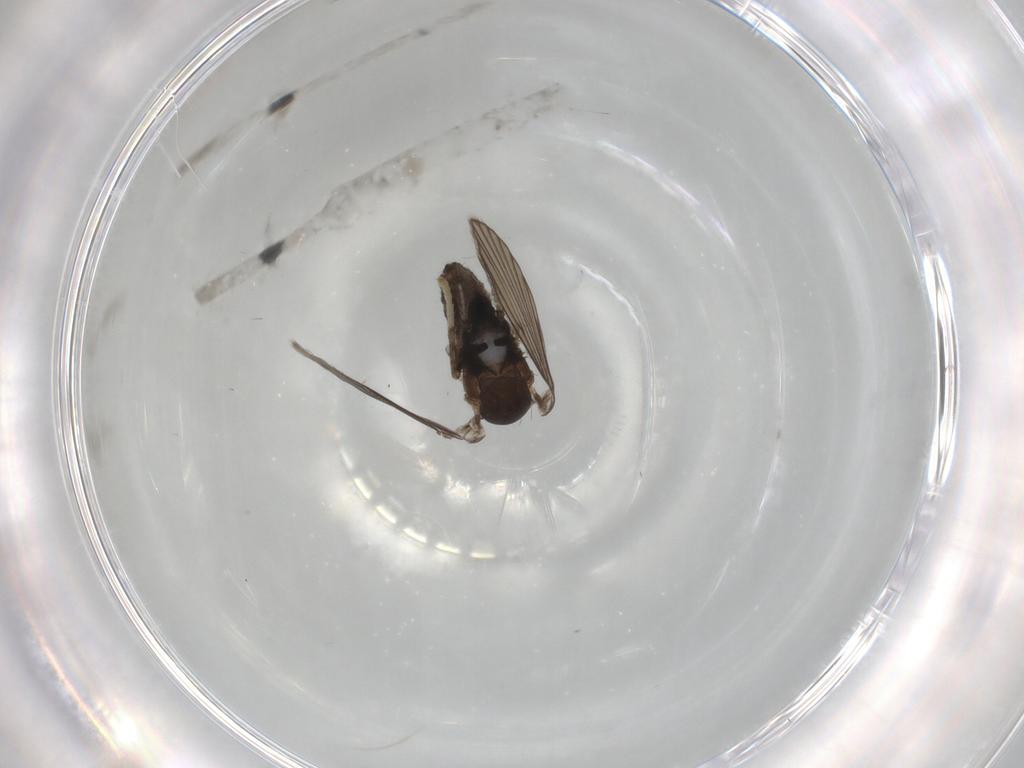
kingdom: Animalia
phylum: Arthropoda
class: Insecta
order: Diptera
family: Psychodidae
